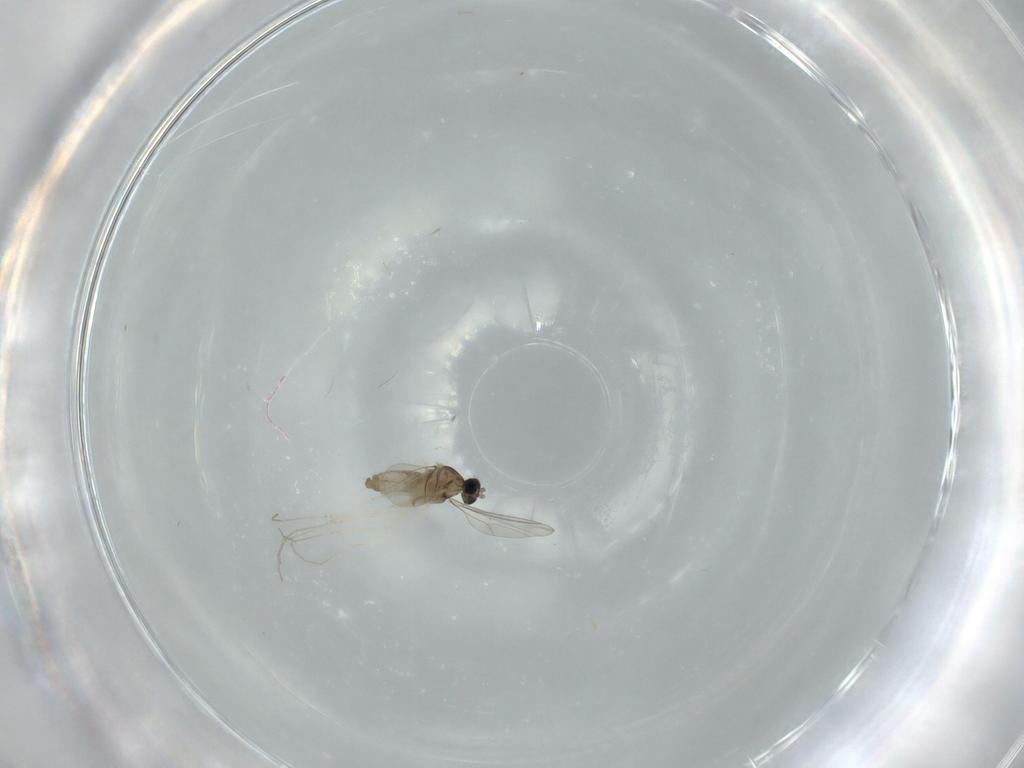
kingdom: Animalia
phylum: Arthropoda
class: Insecta
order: Diptera
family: Cecidomyiidae
